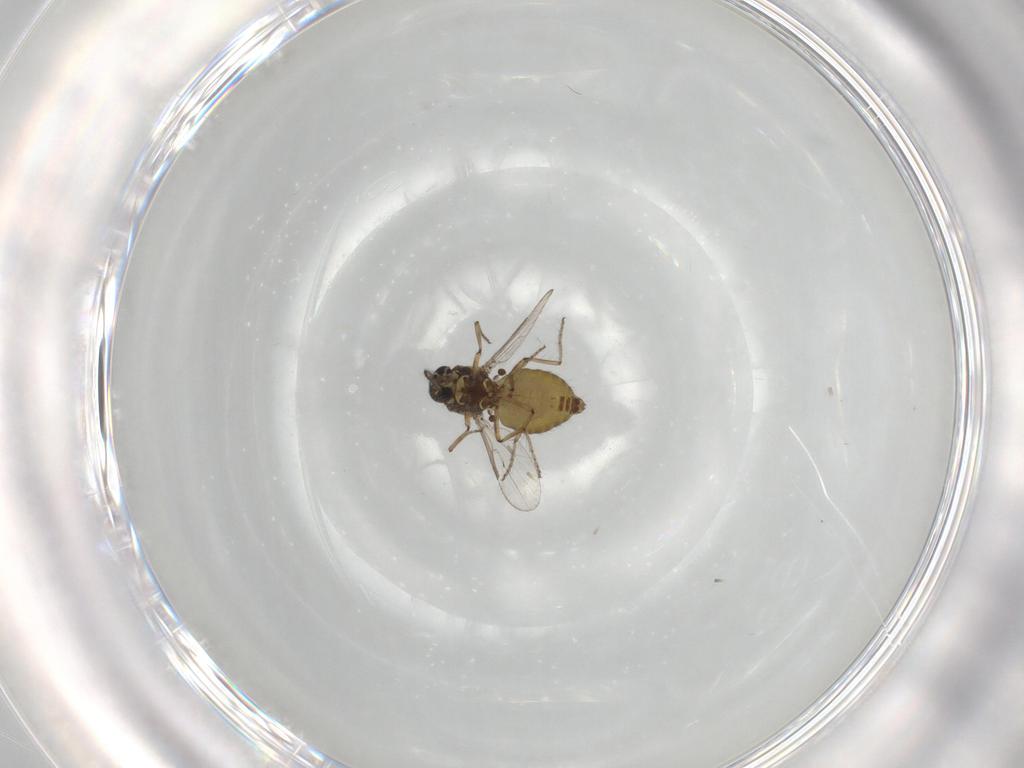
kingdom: Animalia
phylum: Arthropoda
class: Insecta
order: Diptera
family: Ceratopogonidae
